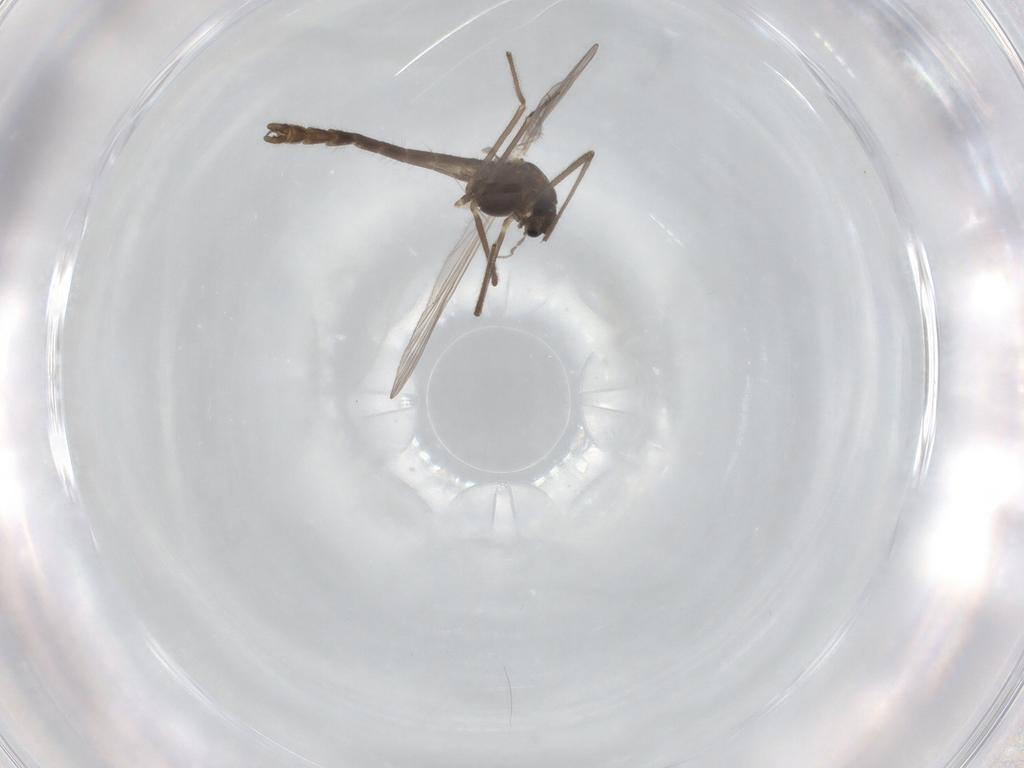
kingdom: Animalia
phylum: Arthropoda
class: Insecta
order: Diptera
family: Chironomidae
